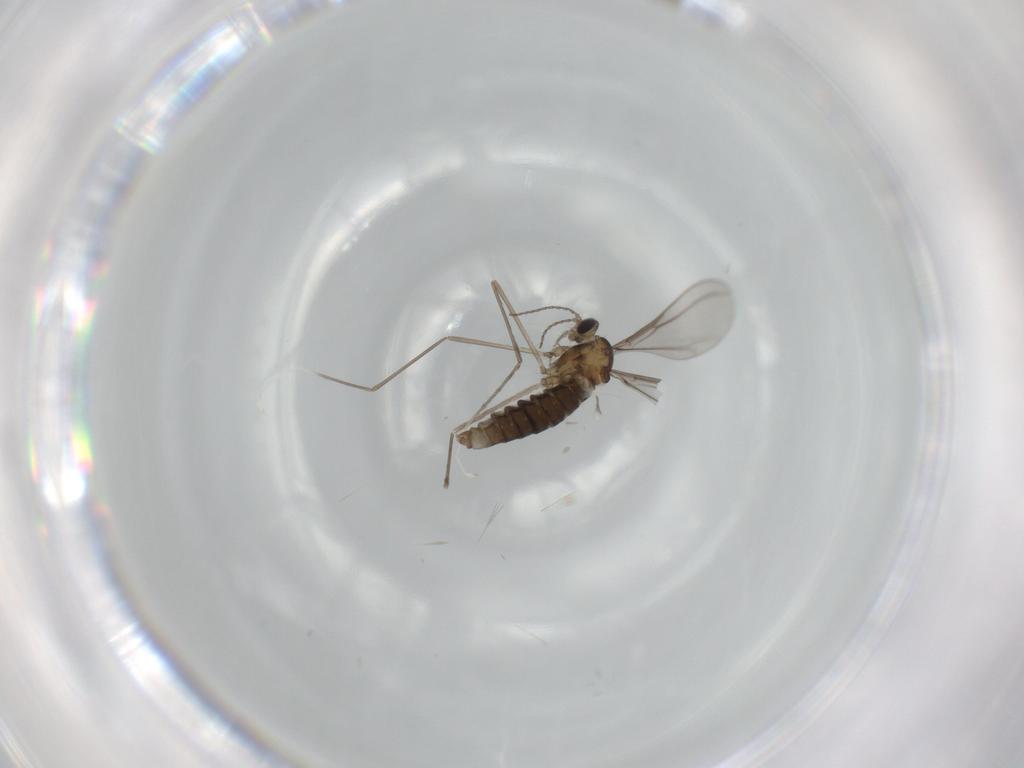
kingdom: Animalia
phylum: Arthropoda
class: Insecta
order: Diptera
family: Cecidomyiidae
